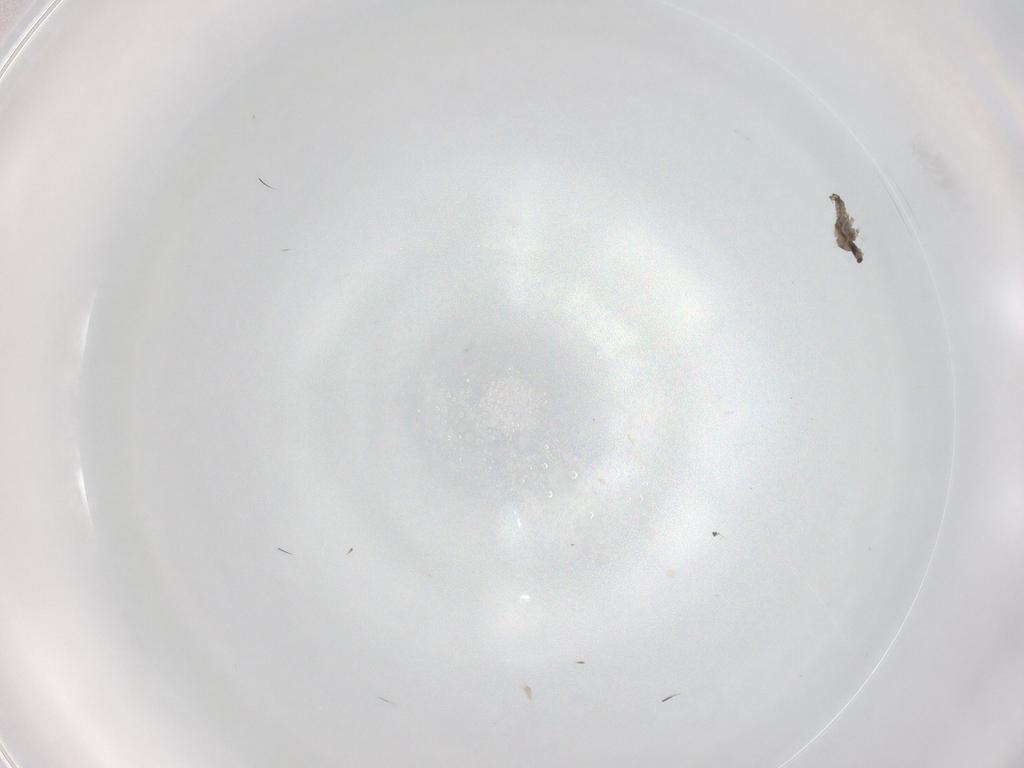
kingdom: Animalia
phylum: Arthropoda
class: Insecta
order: Diptera
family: Cecidomyiidae
